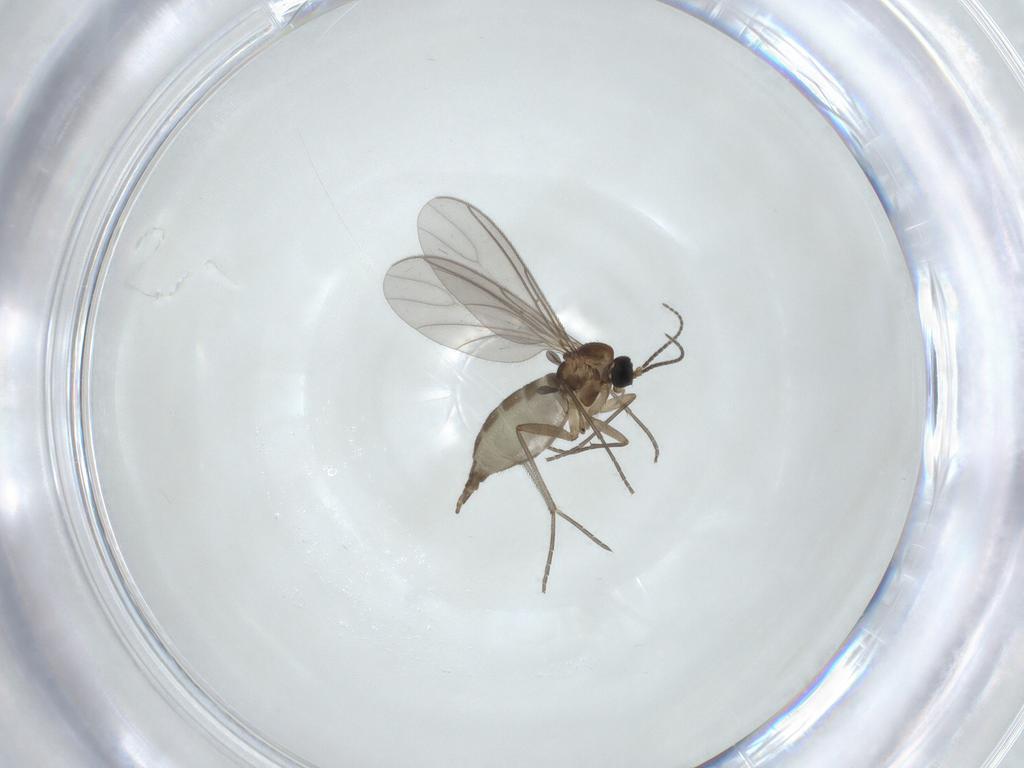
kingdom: Animalia
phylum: Arthropoda
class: Insecta
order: Diptera
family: Sciaridae
